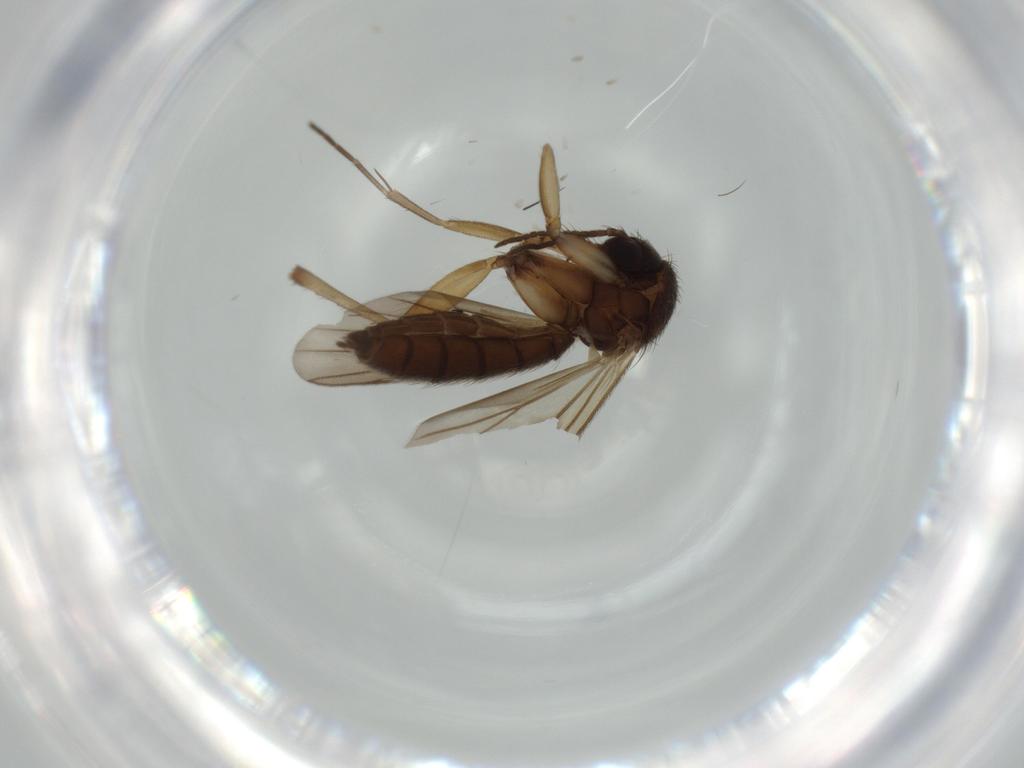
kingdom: Animalia
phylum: Arthropoda
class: Insecta
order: Diptera
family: Mycetophilidae
